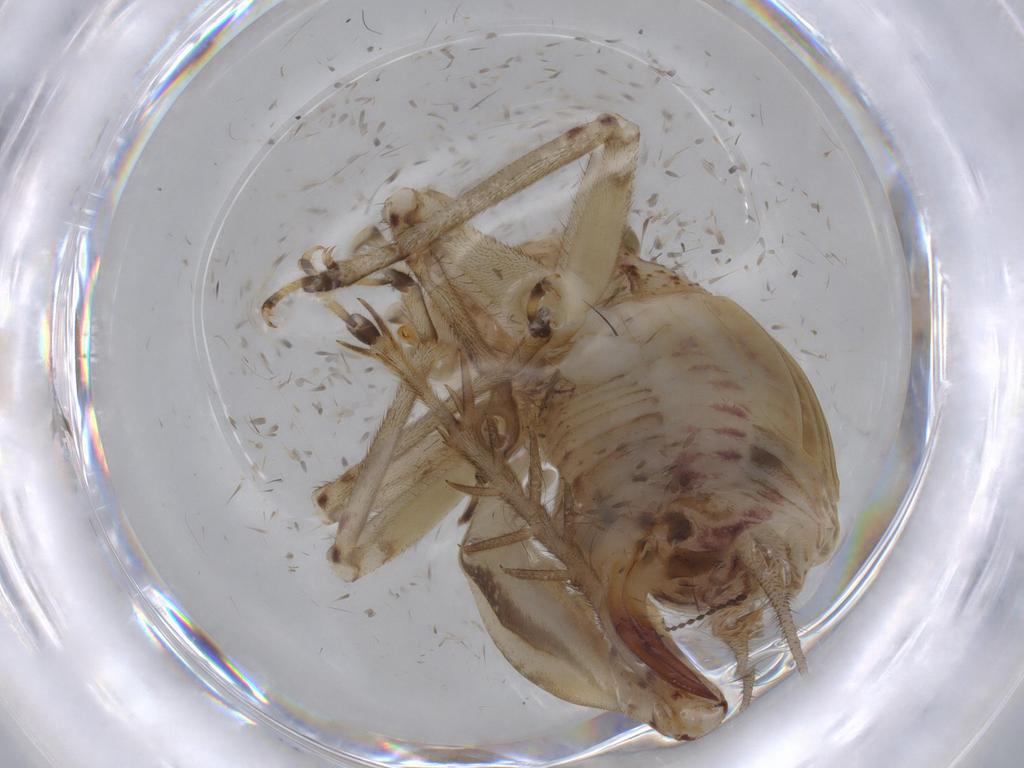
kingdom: Animalia
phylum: Arthropoda
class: Insecta
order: Orthoptera
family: Trigonidiidae
